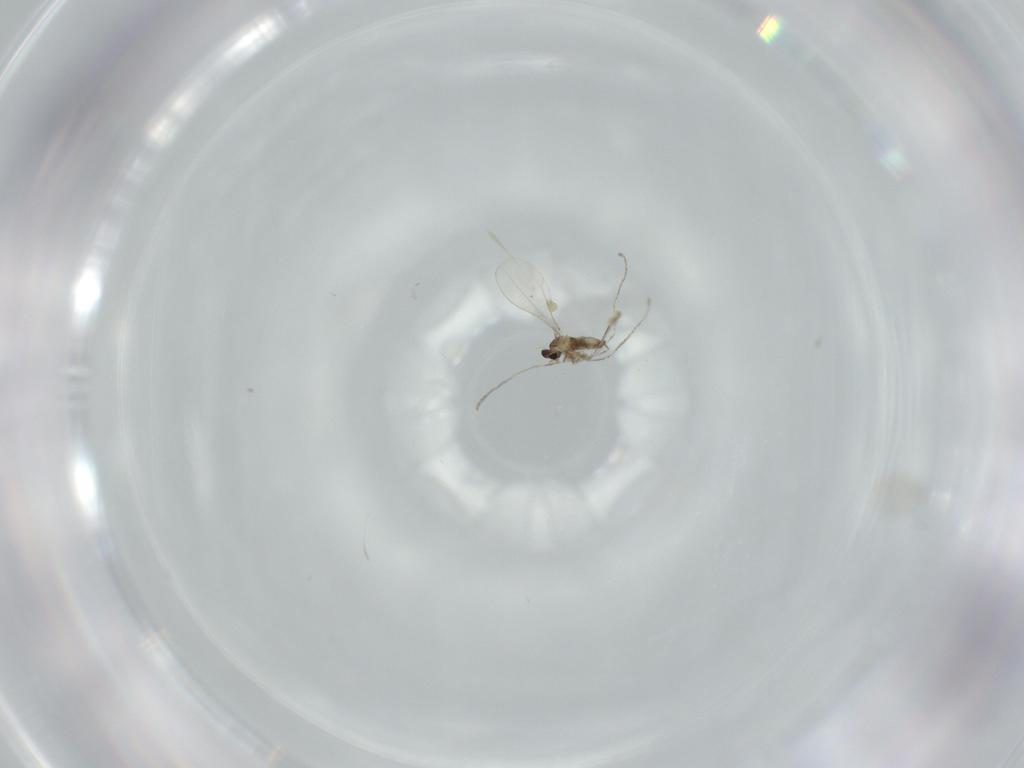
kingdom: Animalia
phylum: Arthropoda
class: Insecta
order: Diptera
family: Cecidomyiidae
